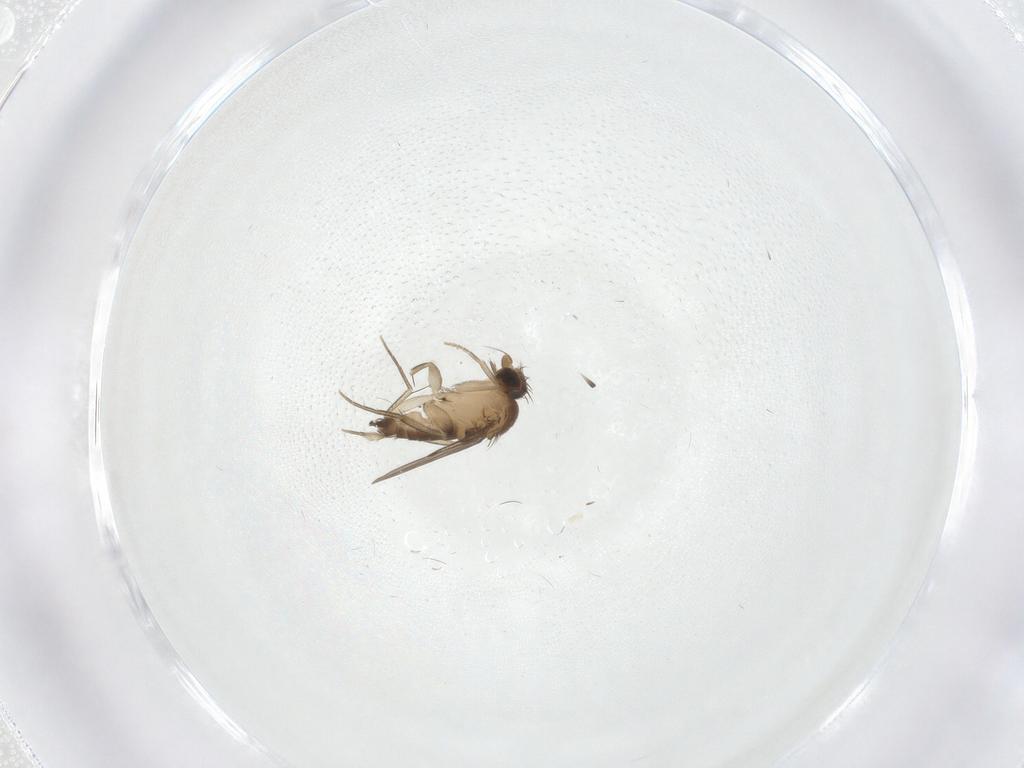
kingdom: Animalia
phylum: Arthropoda
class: Insecta
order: Diptera
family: Phoridae
